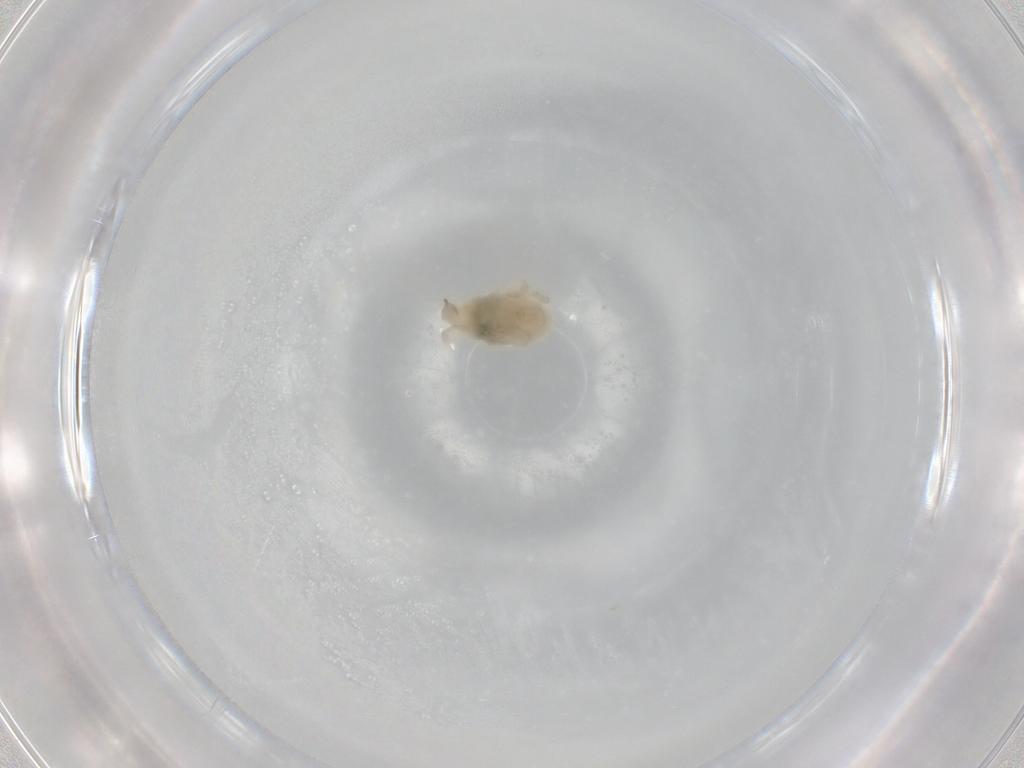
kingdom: Animalia
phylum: Arthropoda
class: Arachnida
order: Trombidiformes
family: Bdellidae
